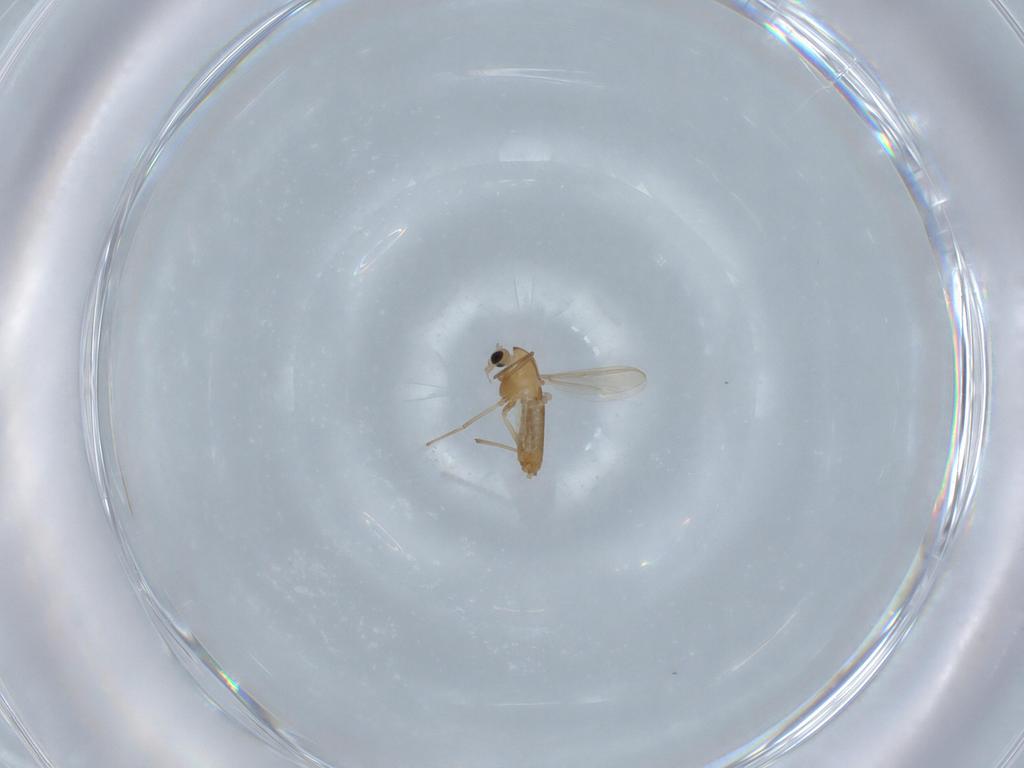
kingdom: Animalia
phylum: Arthropoda
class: Insecta
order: Diptera
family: Chironomidae
